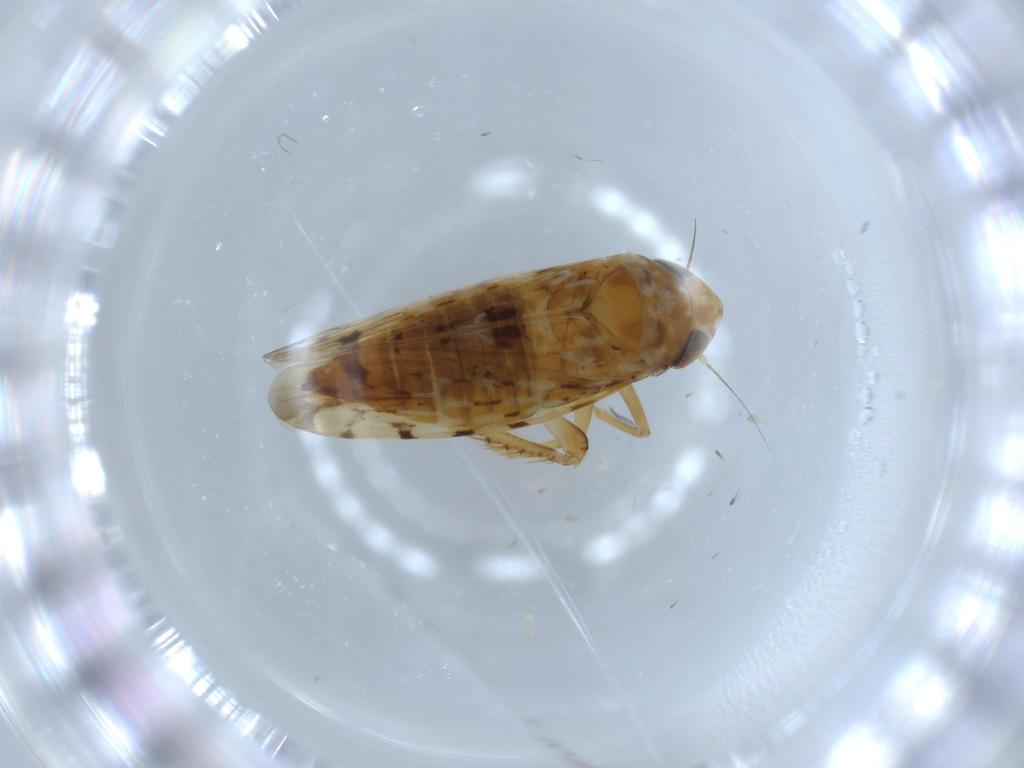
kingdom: Animalia
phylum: Arthropoda
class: Insecta
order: Hemiptera
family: Cicadellidae
